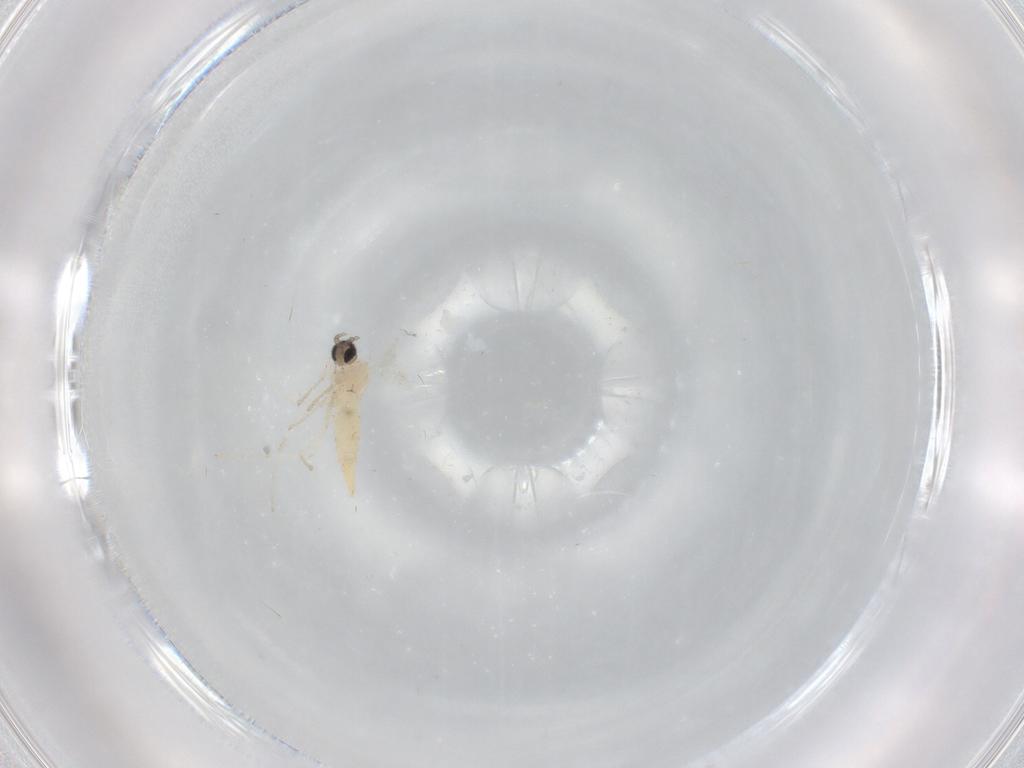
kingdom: Animalia
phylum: Arthropoda
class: Insecta
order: Diptera
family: Cecidomyiidae
